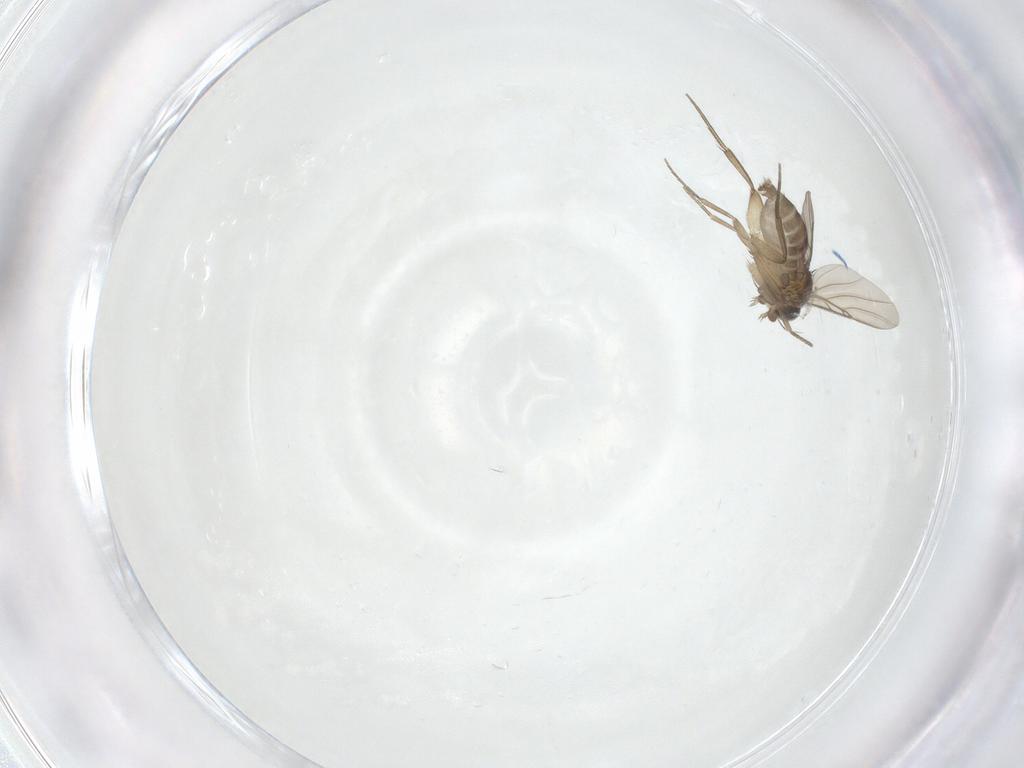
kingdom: Animalia
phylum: Arthropoda
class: Insecta
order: Diptera
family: Phoridae
